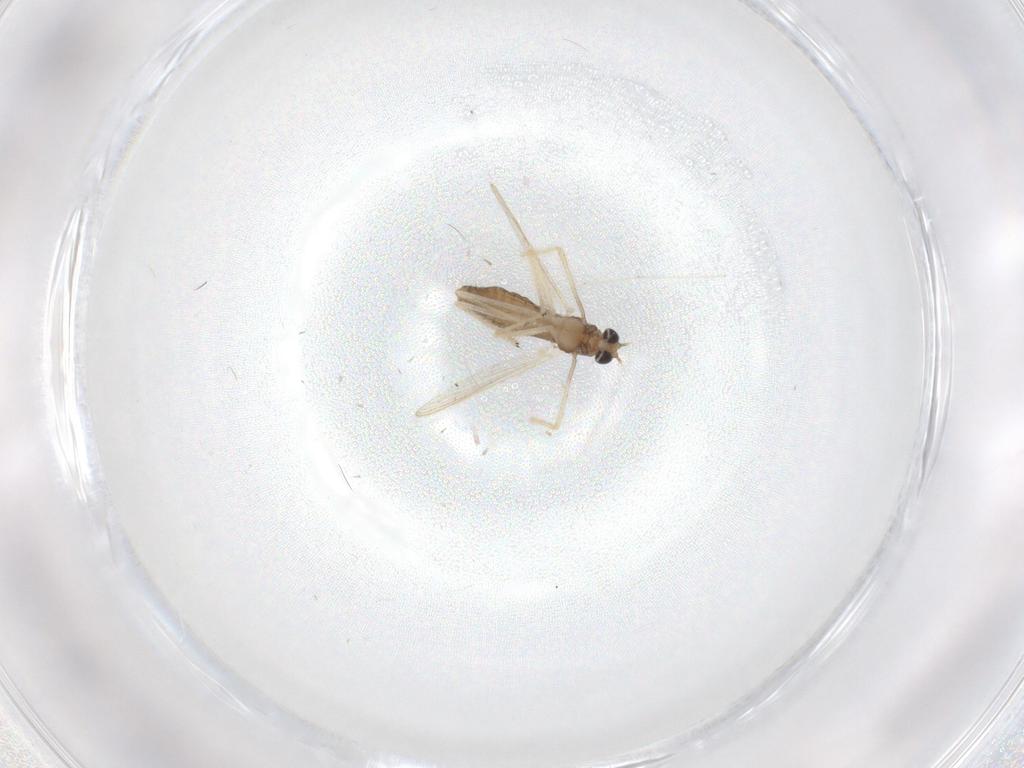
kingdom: Animalia
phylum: Arthropoda
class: Insecta
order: Diptera
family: Chironomidae
